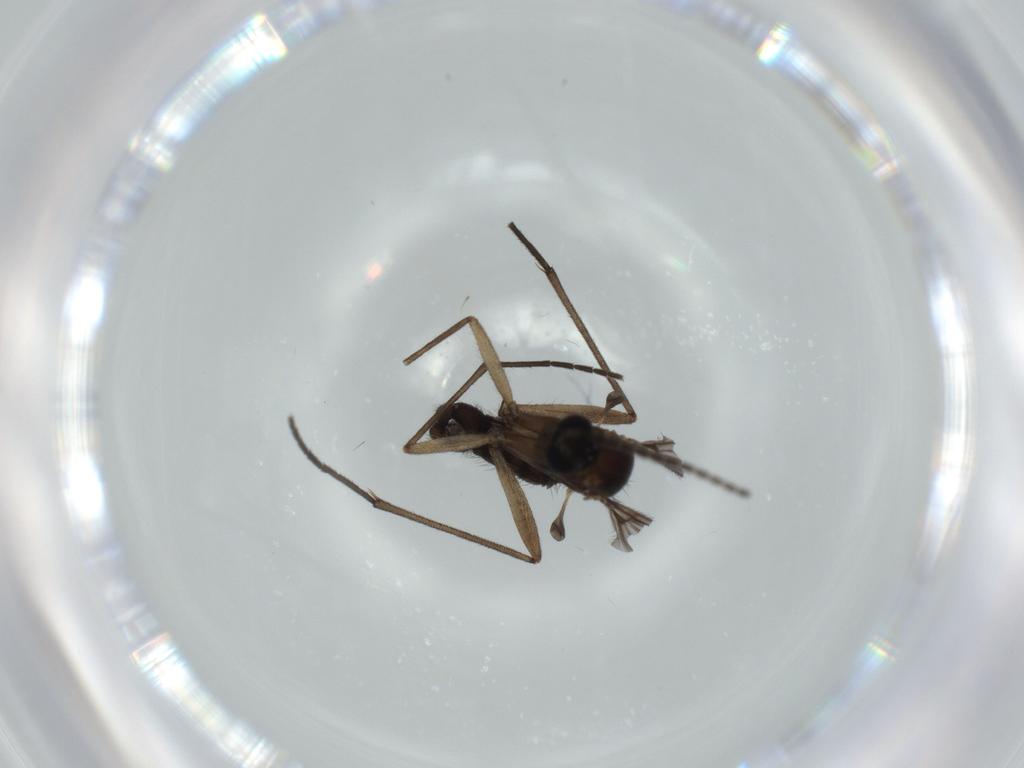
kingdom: Animalia
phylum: Arthropoda
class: Insecta
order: Diptera
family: Sciaridae
